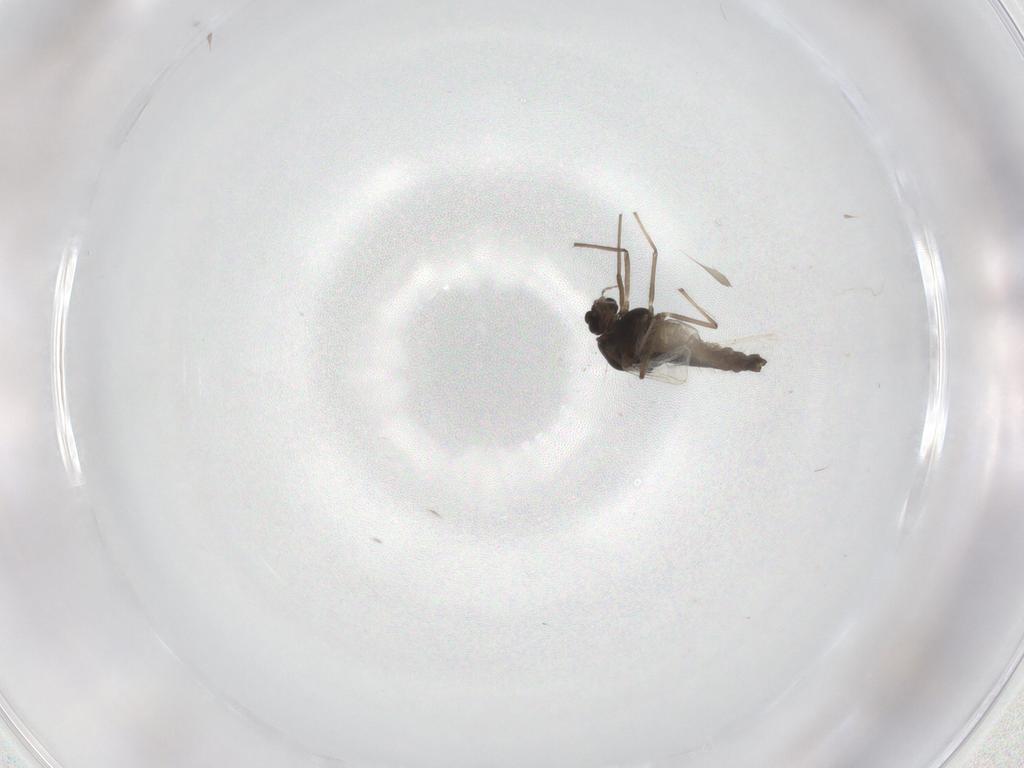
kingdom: Animalia
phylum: Arthropoda
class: Insecta
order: Diptera
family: Chironomidae
